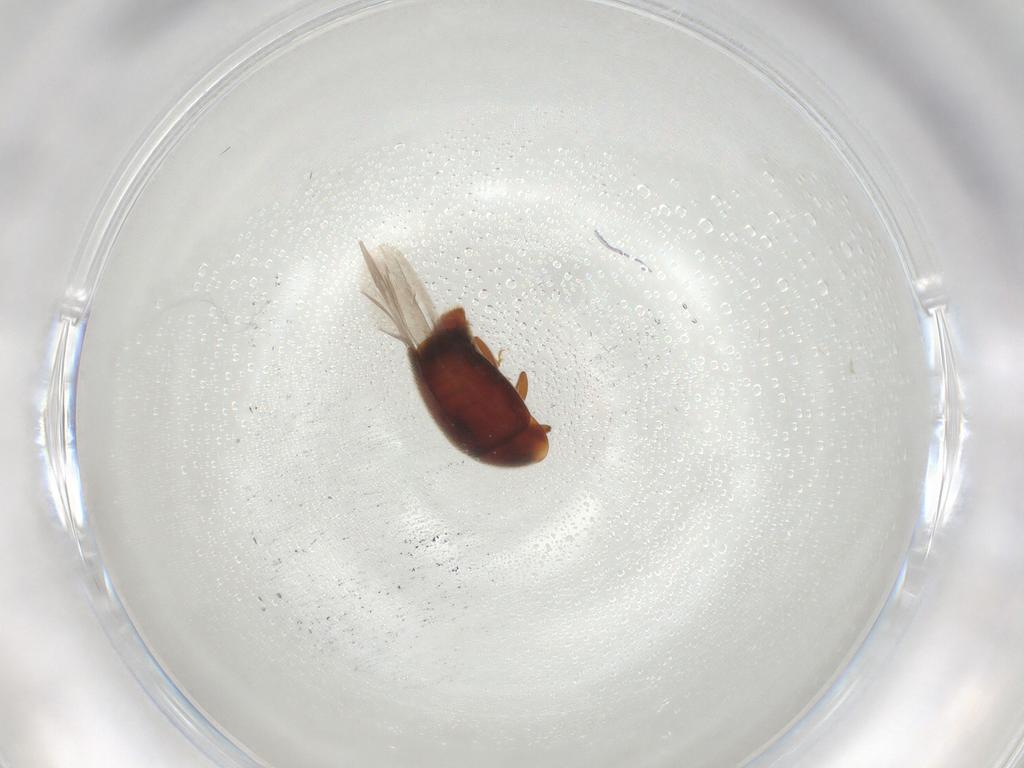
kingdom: Animalia
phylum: Arthropoda
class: Insecta
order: Coleoptera
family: Corylophidae
